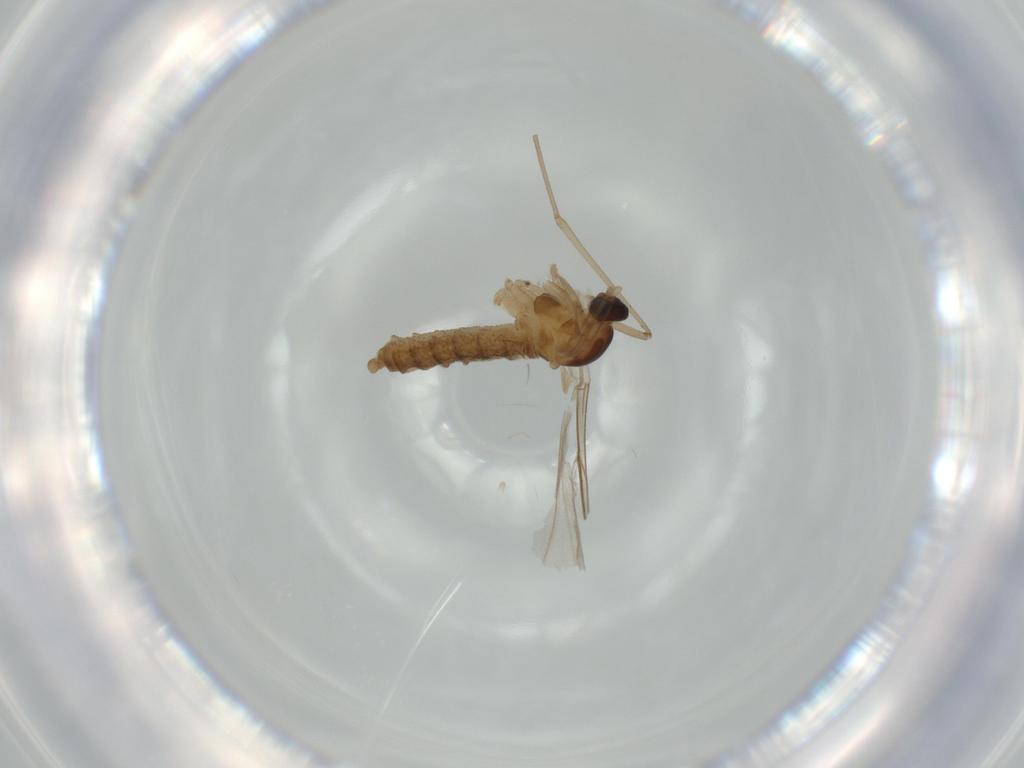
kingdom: Animalia
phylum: Arthropoda
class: Insecta
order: Diptera
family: Cecidomyiidae
